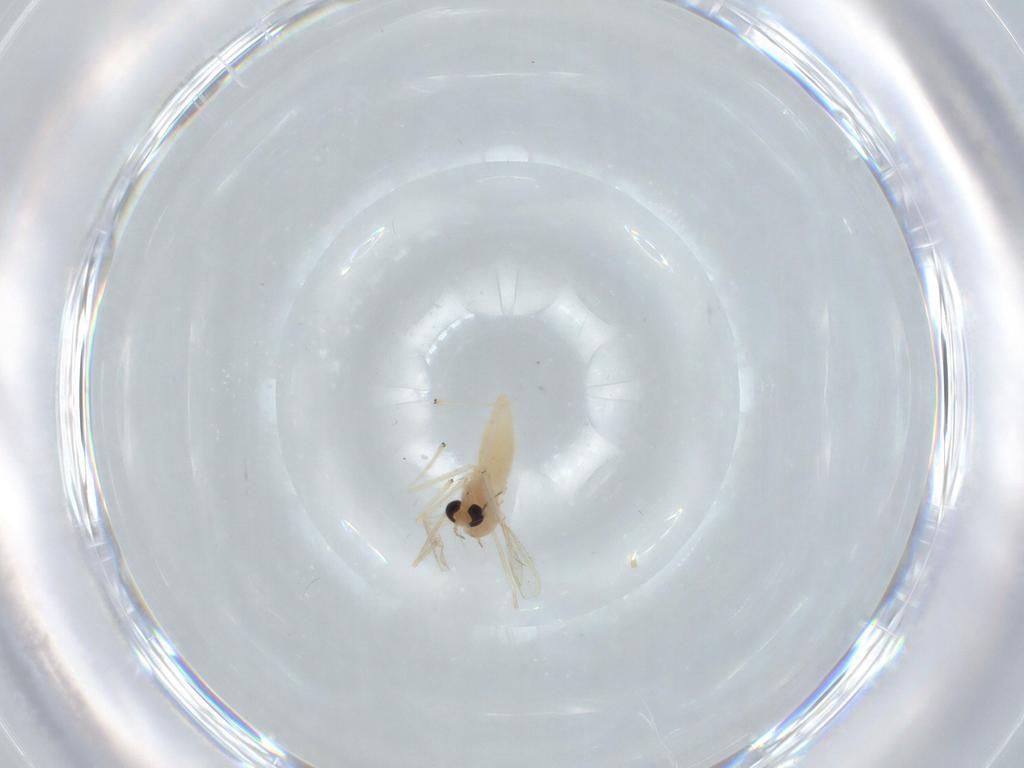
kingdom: Animalia
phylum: Arthropoda
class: Insecta
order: Diptera
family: Chironomidae
